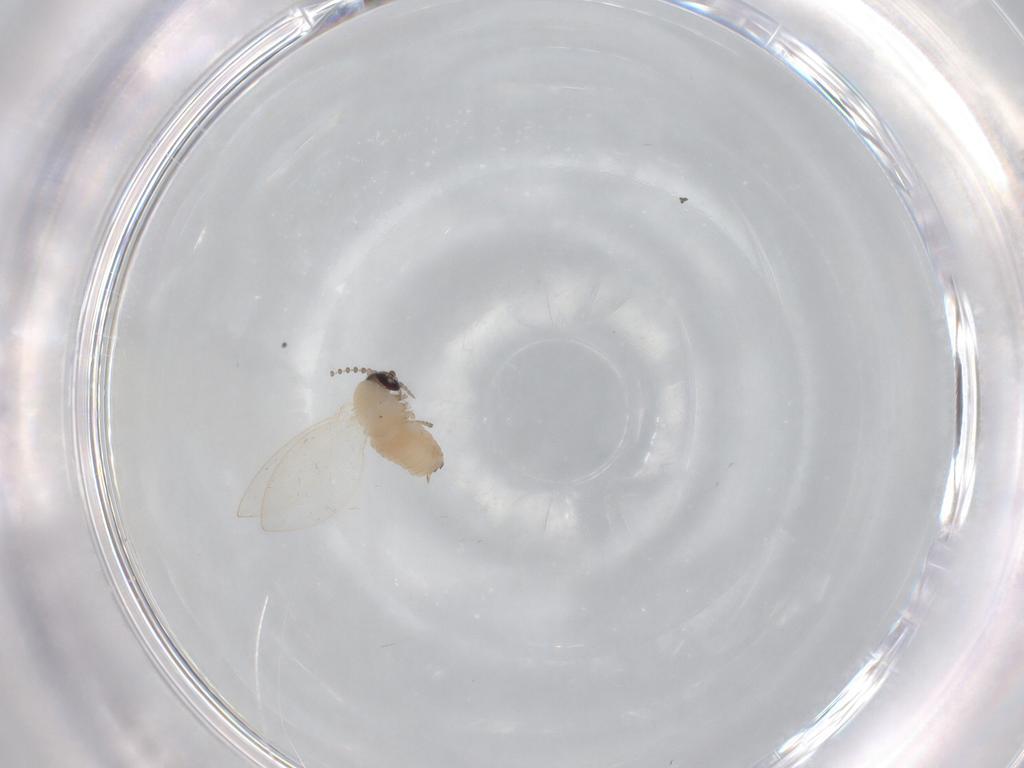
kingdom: Animalia
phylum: Arthropoda
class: Insecta
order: Diptera
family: Psychodidae
